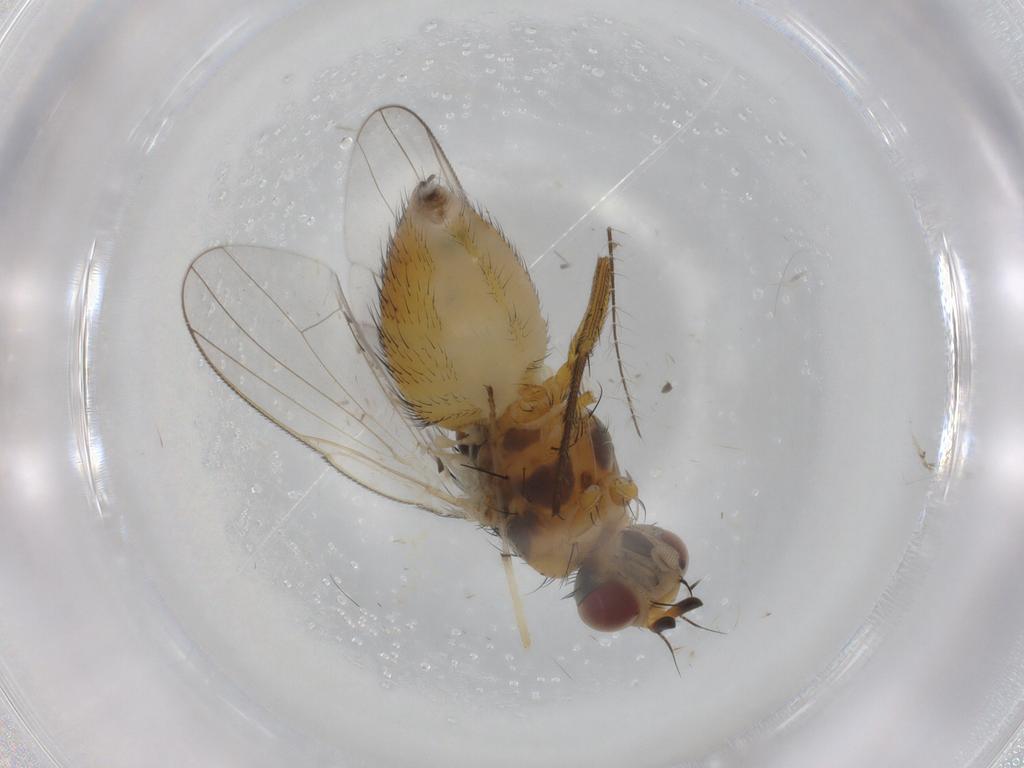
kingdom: Animalia
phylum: Arthropoda
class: Insecta
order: Diptera
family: Muscidae
